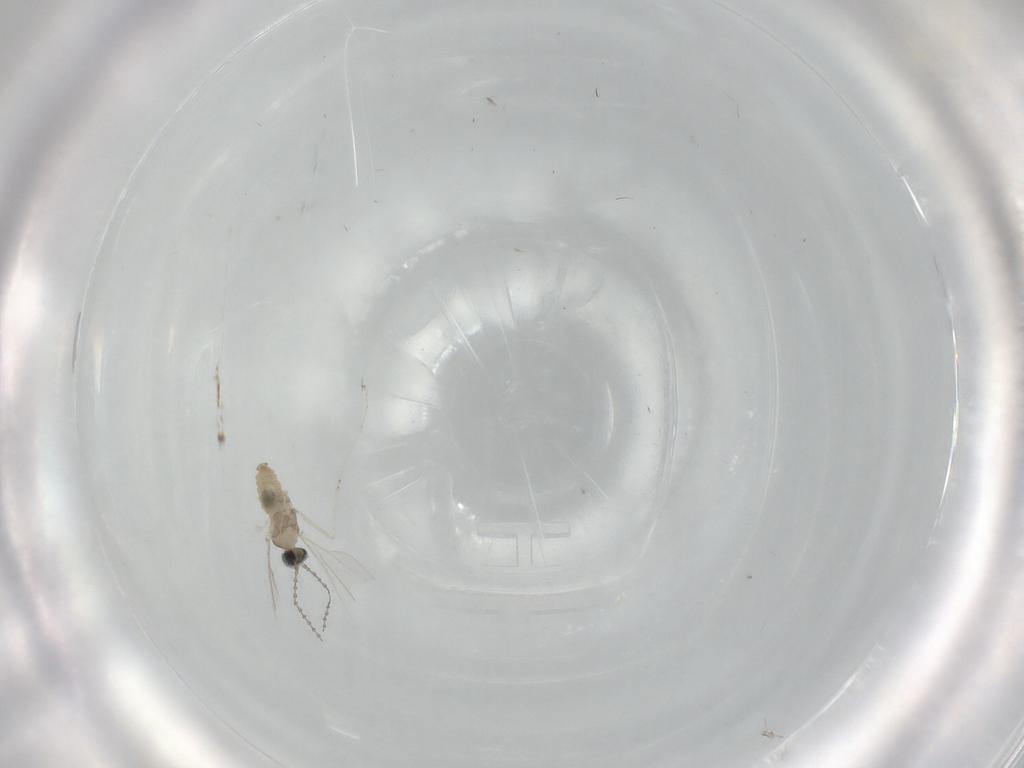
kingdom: Animalia
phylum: Arthropoda
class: Insecta
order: Diptera
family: Cecidomyiidae
